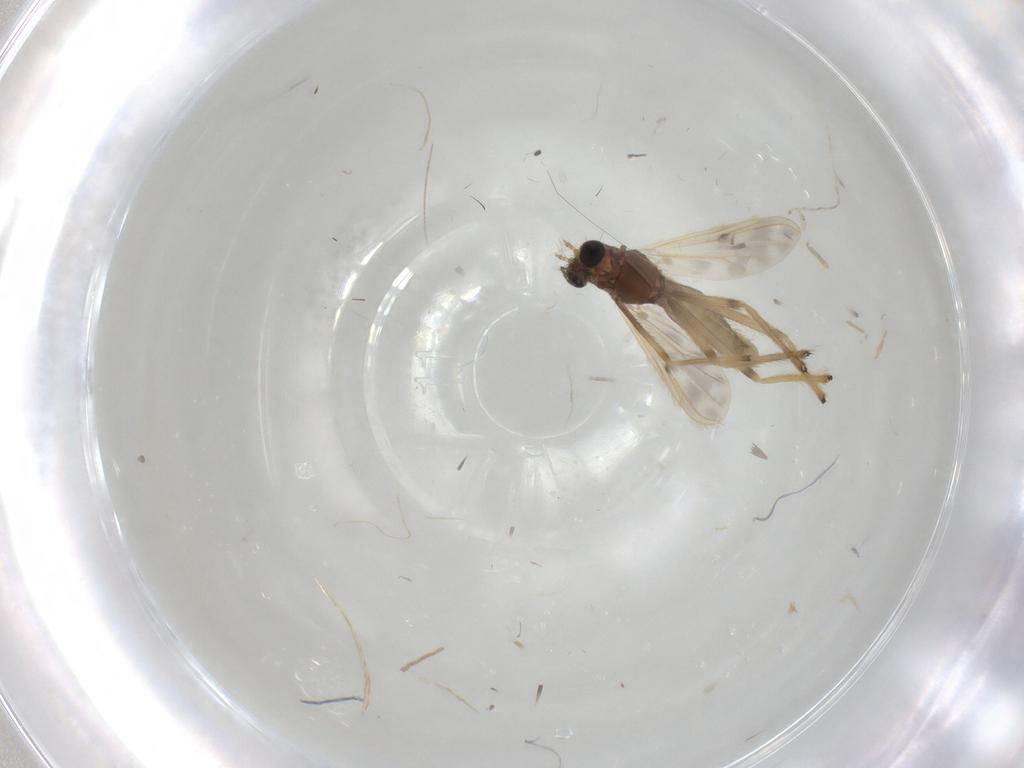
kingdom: Animalia
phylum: Arthropoda
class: Insecta
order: Diptera
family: Chironomidae
